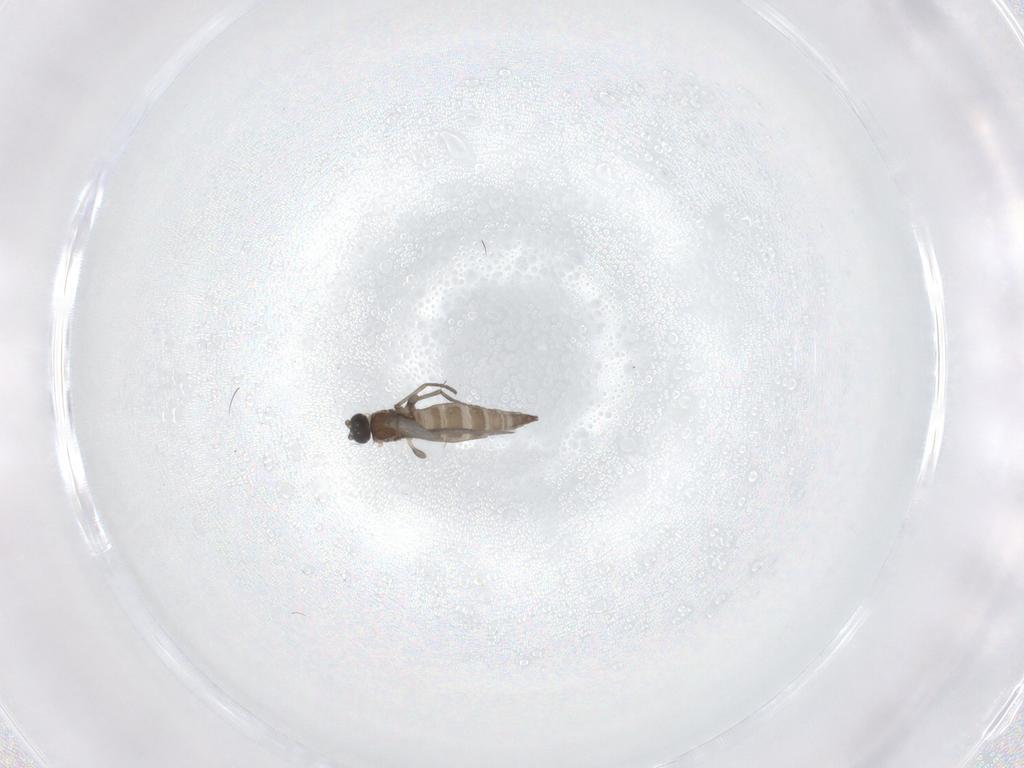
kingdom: Animalia
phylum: Arthropoda
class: Insecta
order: Diptera
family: Sciaridae
